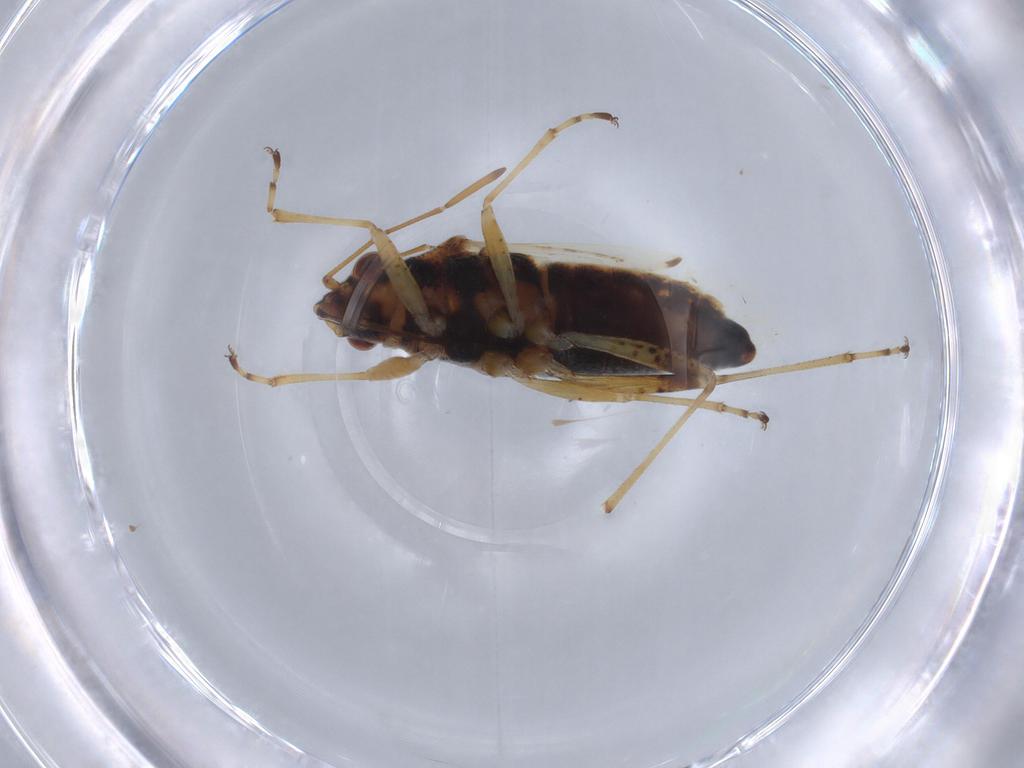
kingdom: Animalia
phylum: Arthropoda
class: Insecta
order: Hemiptera
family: Lygaeidae
